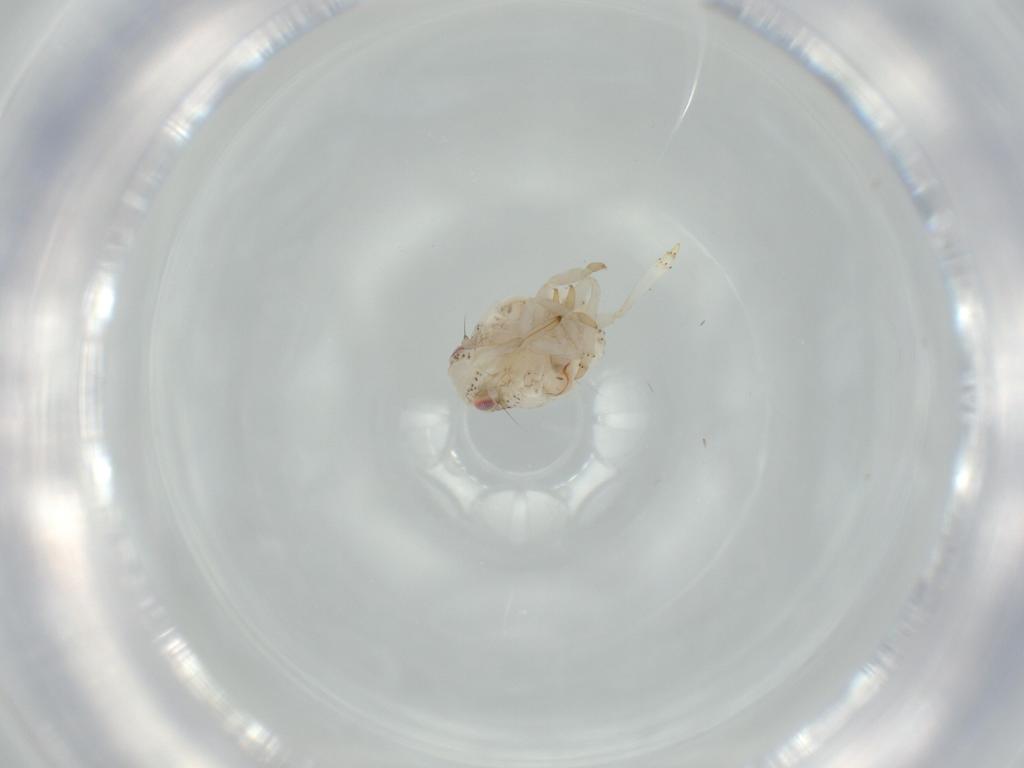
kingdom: Animalia
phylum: Arthropoda
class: Insecta
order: Hemiptera
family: Acanaloniidae
